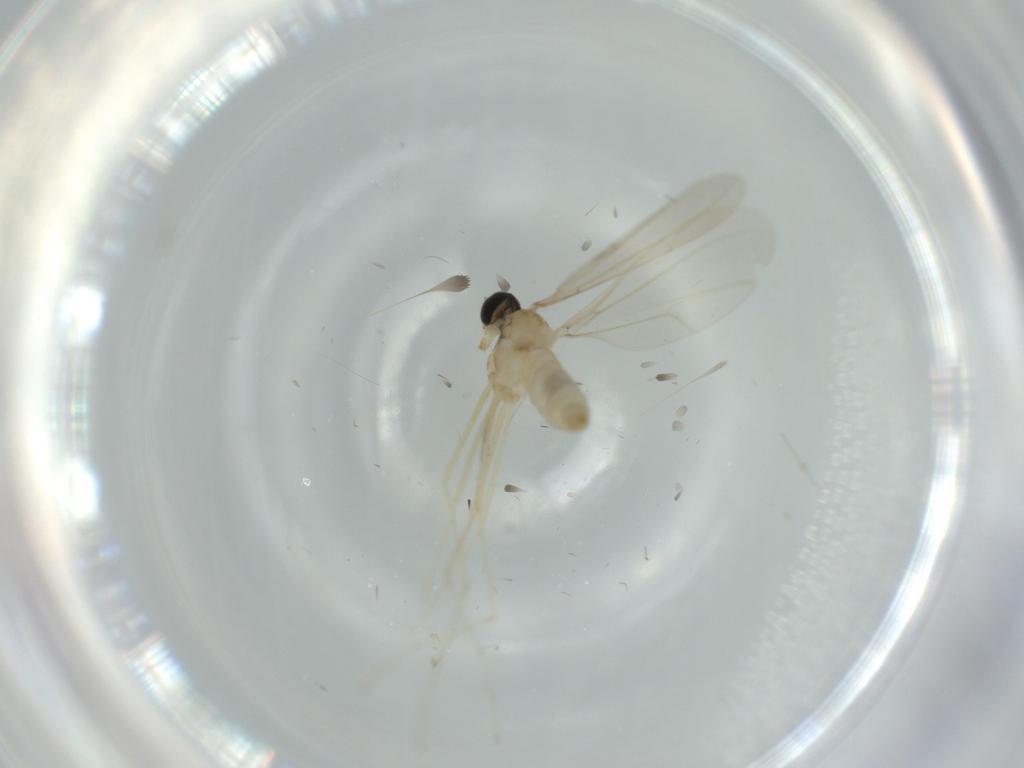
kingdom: Animalia
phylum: Arthropoda
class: Insecta
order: Diptera
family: Cecidomyiidae
